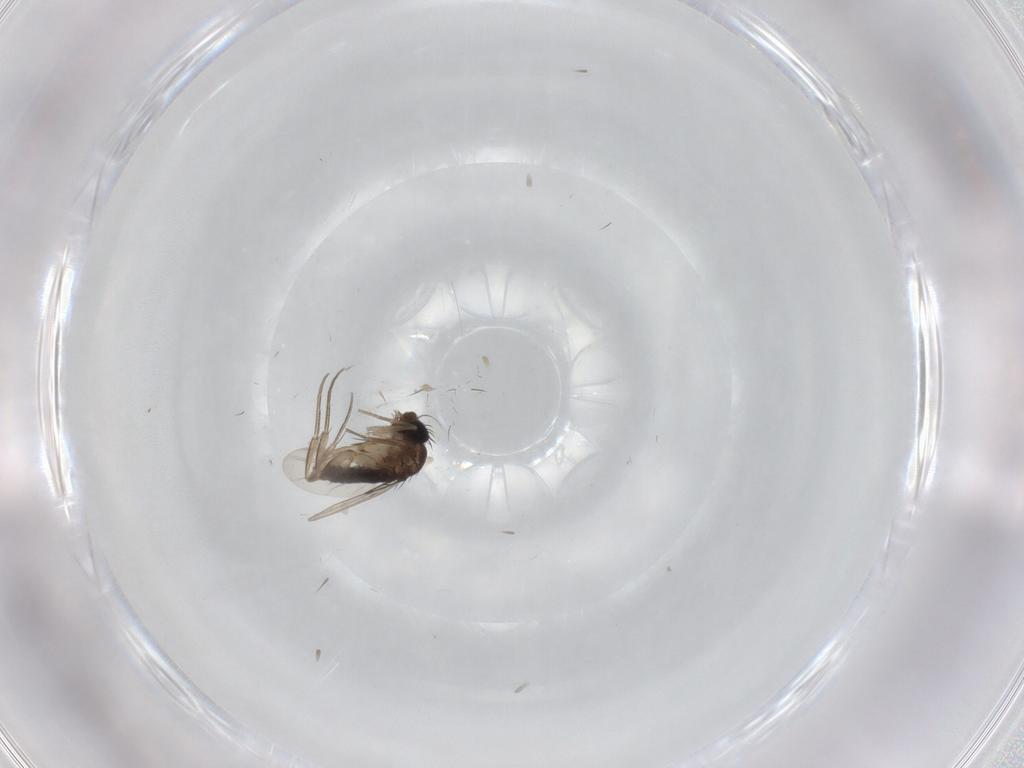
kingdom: Animalia
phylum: Arthropoda
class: Insecta
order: Diptera
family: Phoridae
